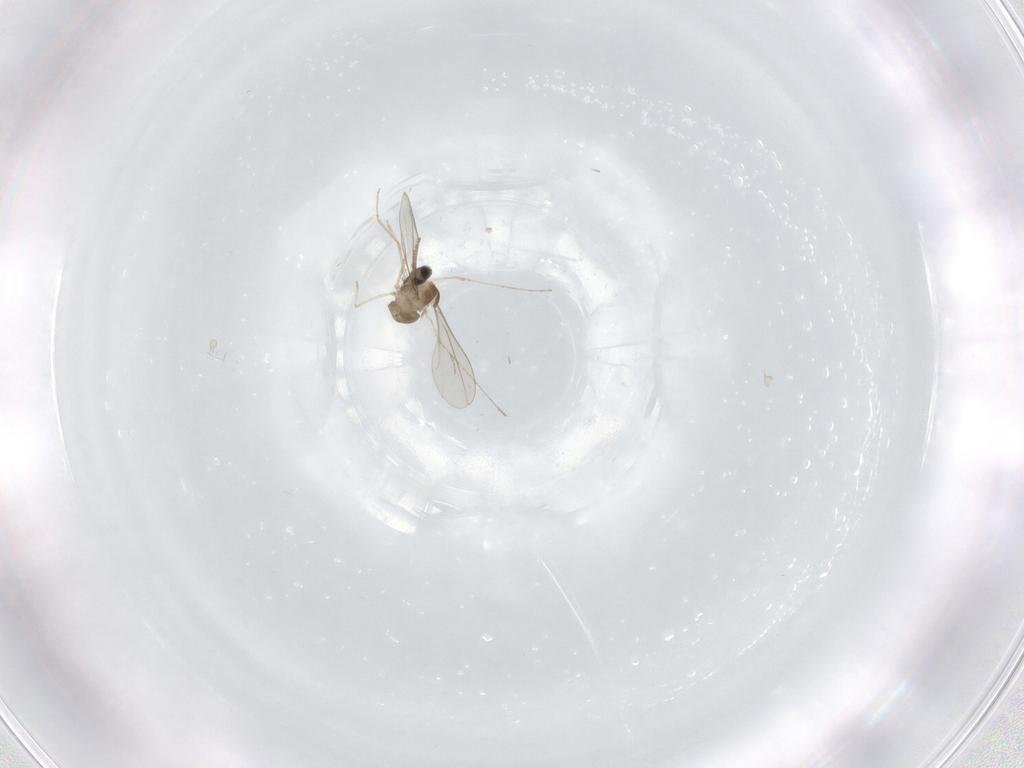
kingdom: Animalia
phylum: Arthropoda
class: Insecta
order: Diptera
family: Cecidomyiidae
